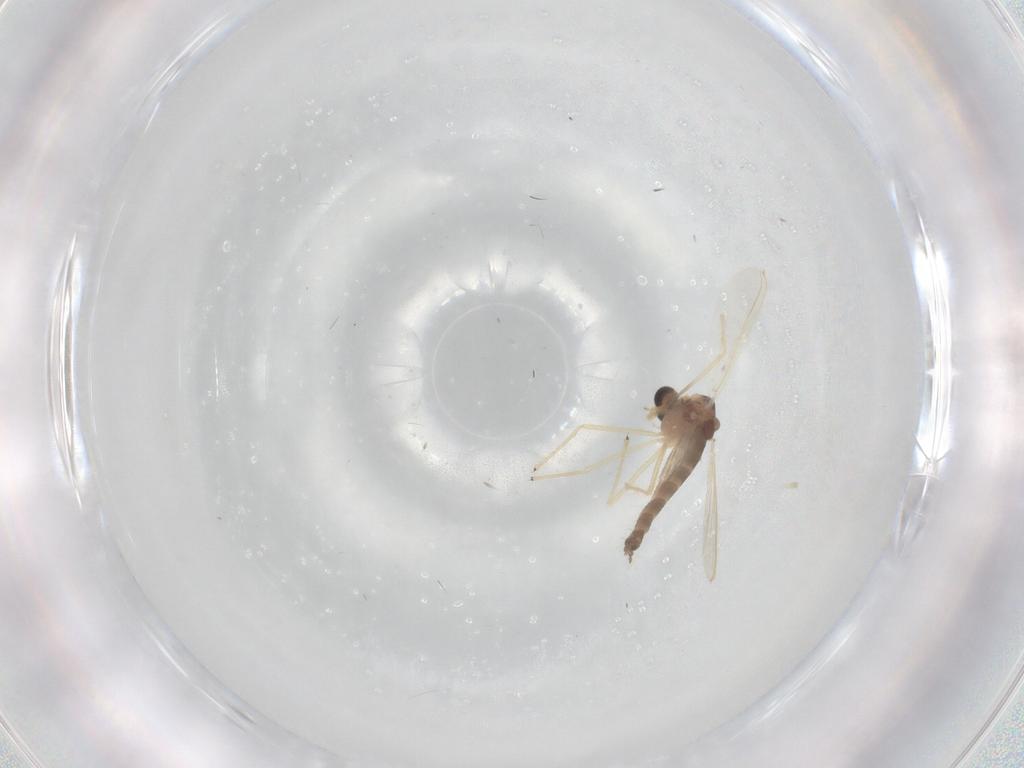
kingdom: Animalia
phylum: Arthropoda
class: Insecta
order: Diptera
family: Chironomidae
